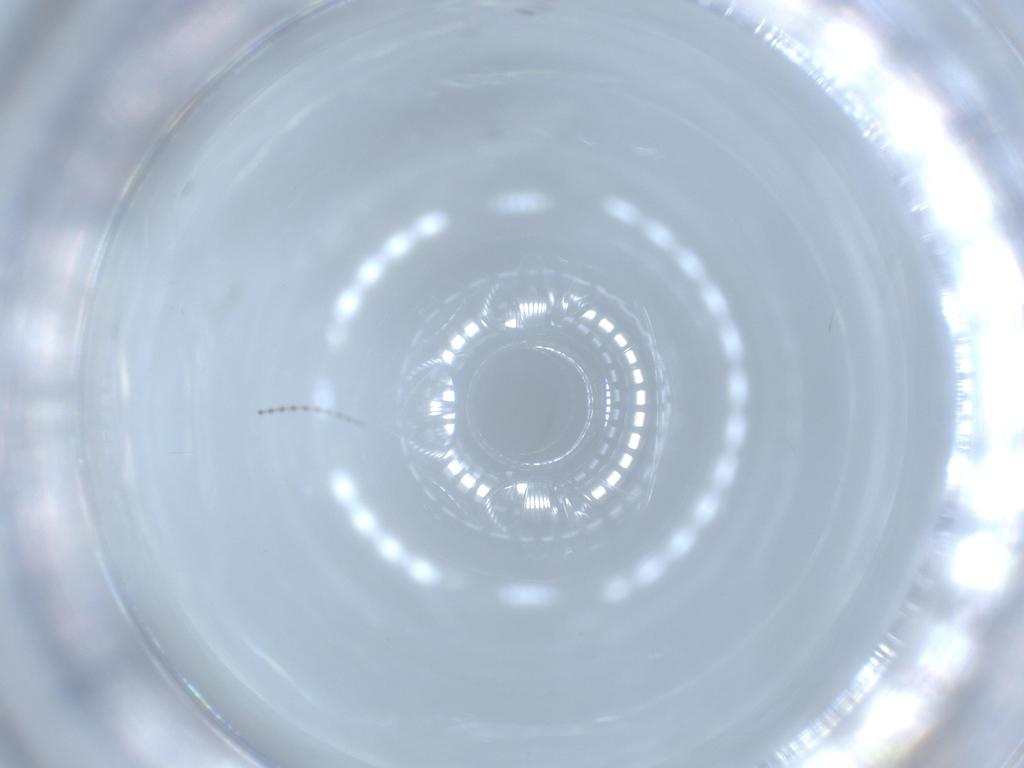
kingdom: Animalia
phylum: Arthropoda
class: Insecta
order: Diptera
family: Cecidomyiidae
